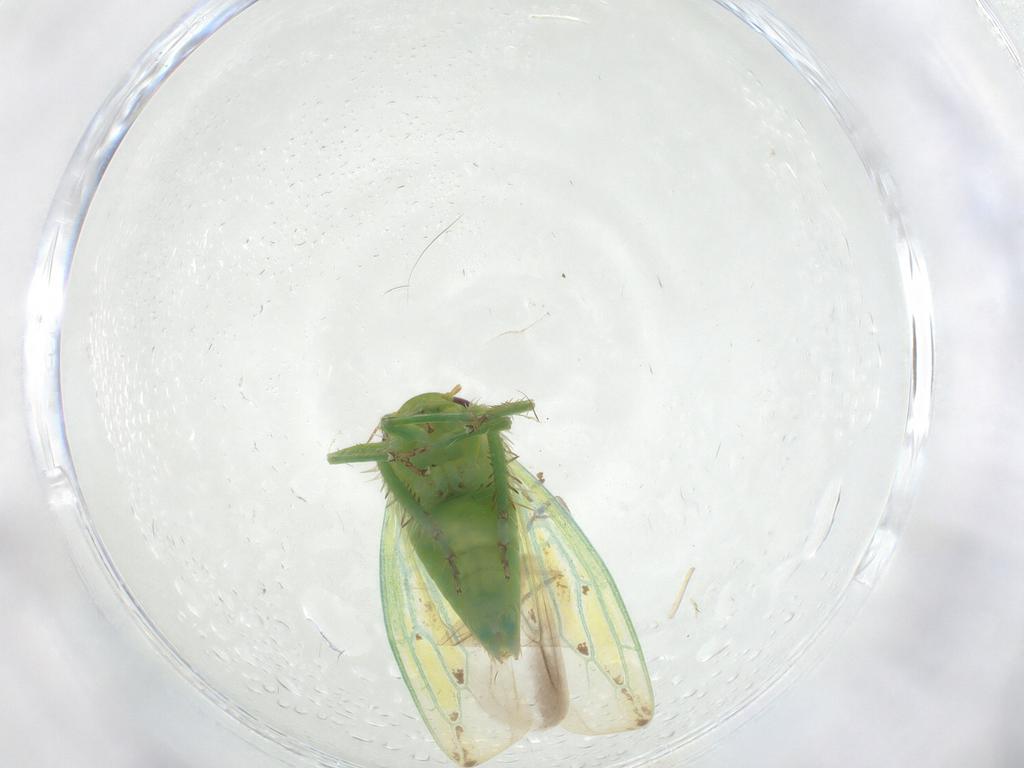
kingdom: Animalia
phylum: Arthropoda
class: Insecta
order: Hemiptera
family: Cicadellidae
